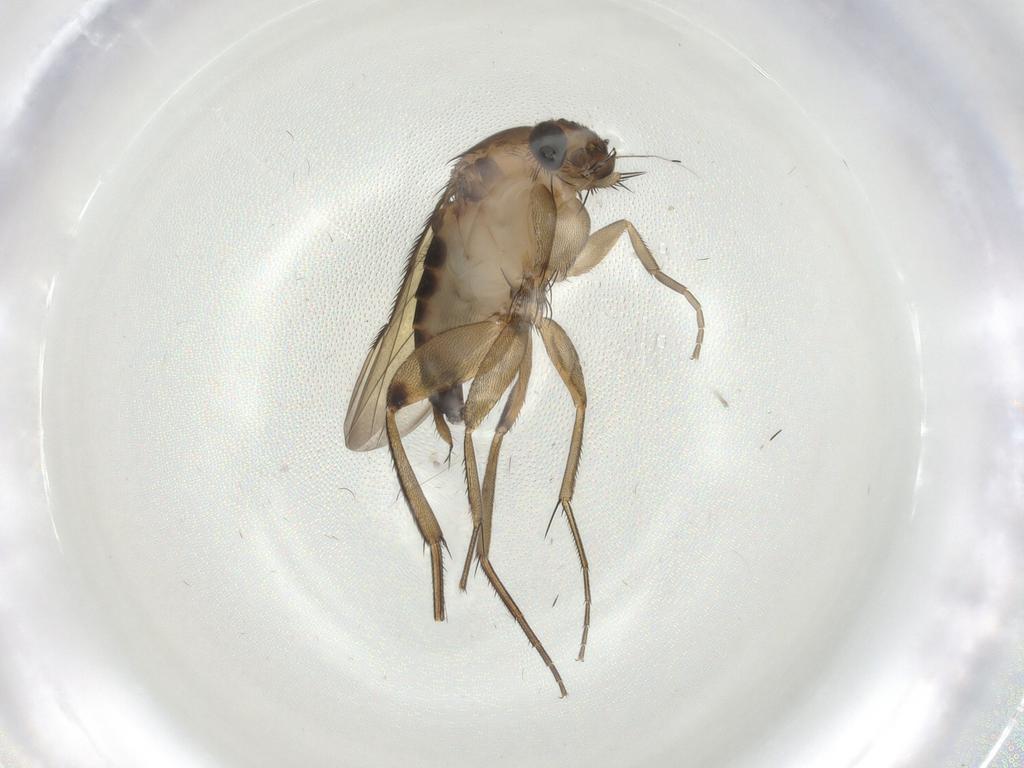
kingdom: Animalia
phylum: Arthropoda
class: Insecta
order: Diptera
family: Phoridae
